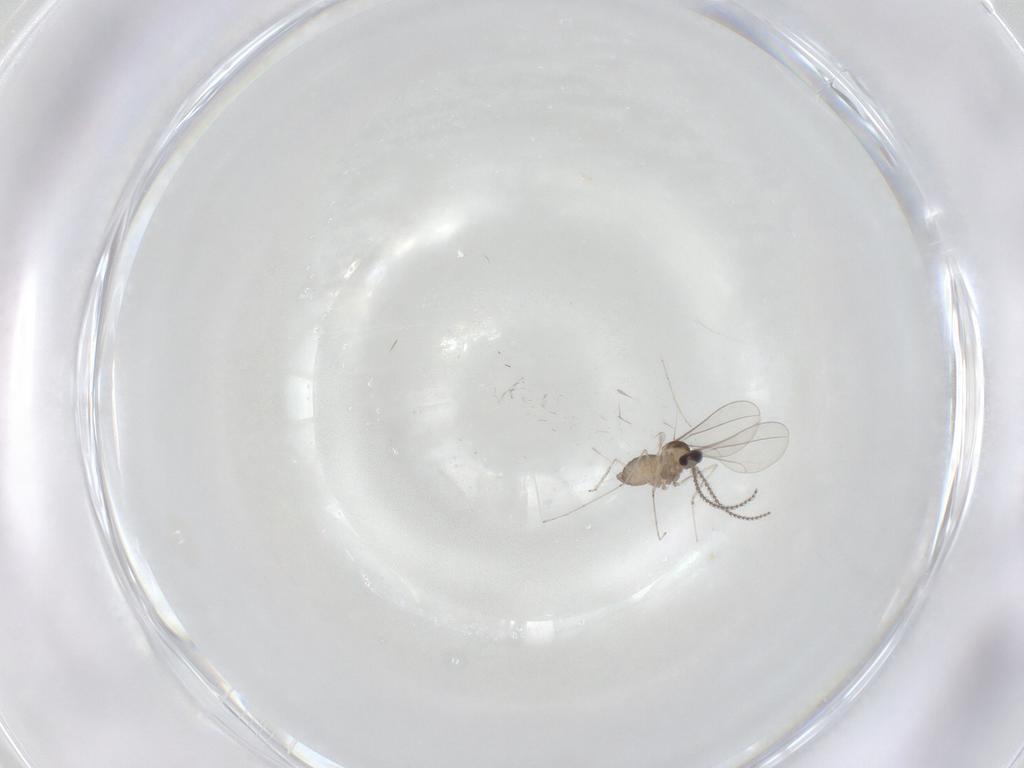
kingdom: Animalia
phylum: Arthropoda
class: Insecta
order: Diptera
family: Cecidomyiidae
